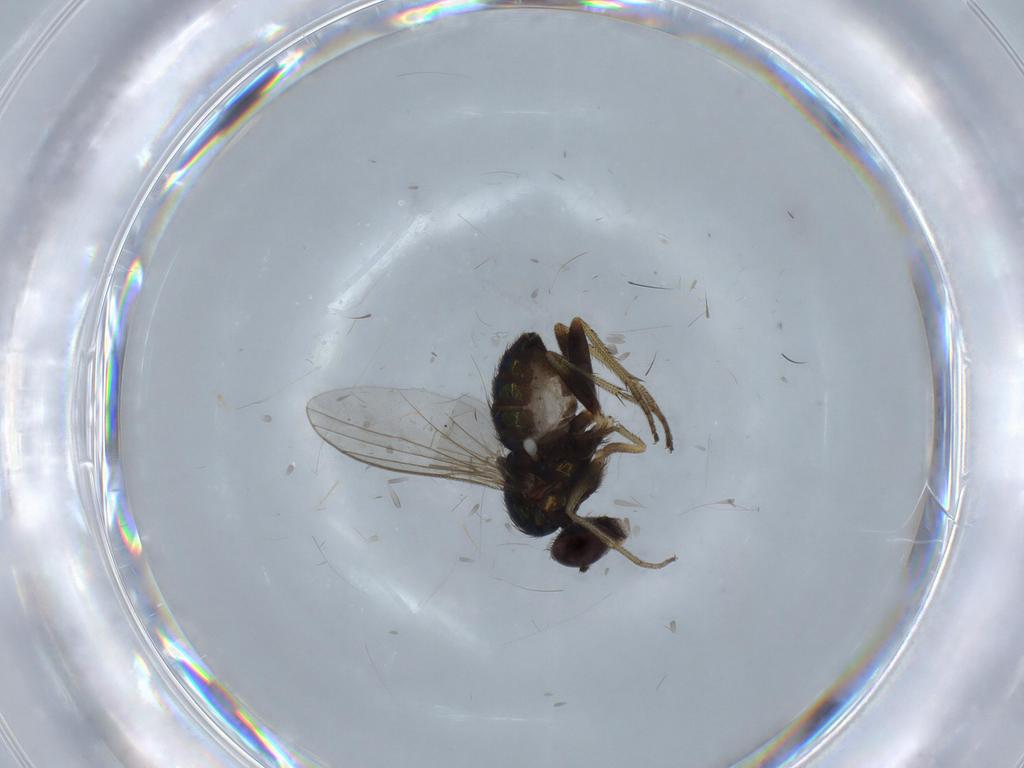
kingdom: Animalia
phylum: Arthropoda
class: Insecta
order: Diptera
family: Dolichopodidae
